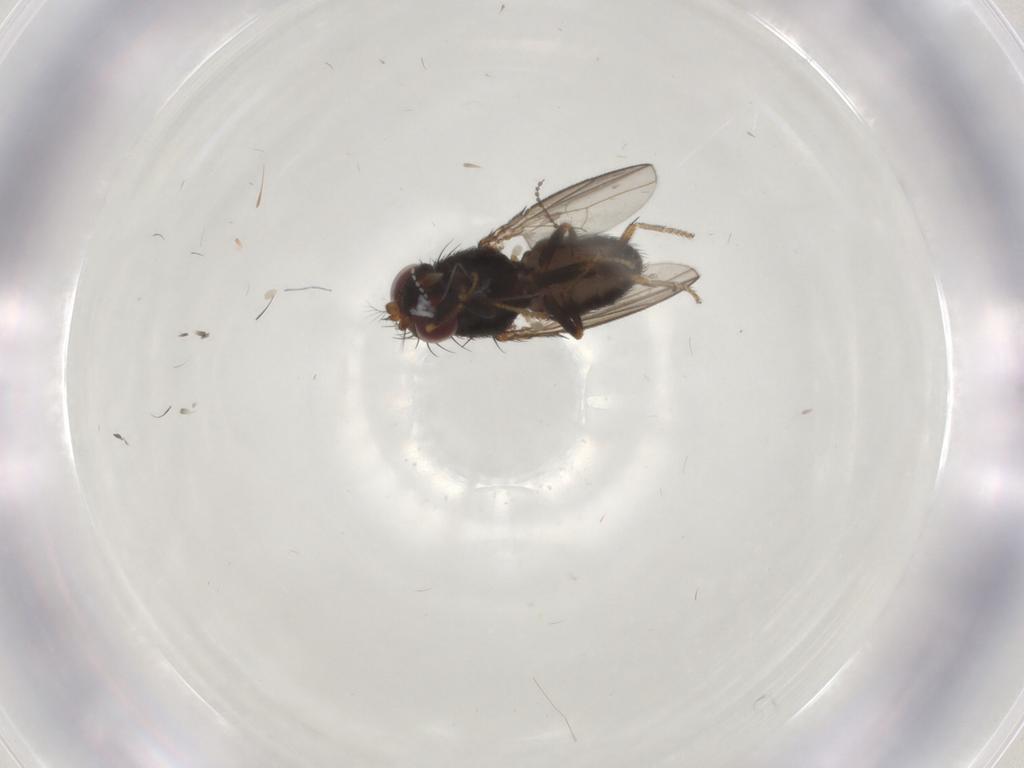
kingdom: Animalia
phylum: Arthropoda
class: Insecta
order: Diptera
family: Ephydridae
